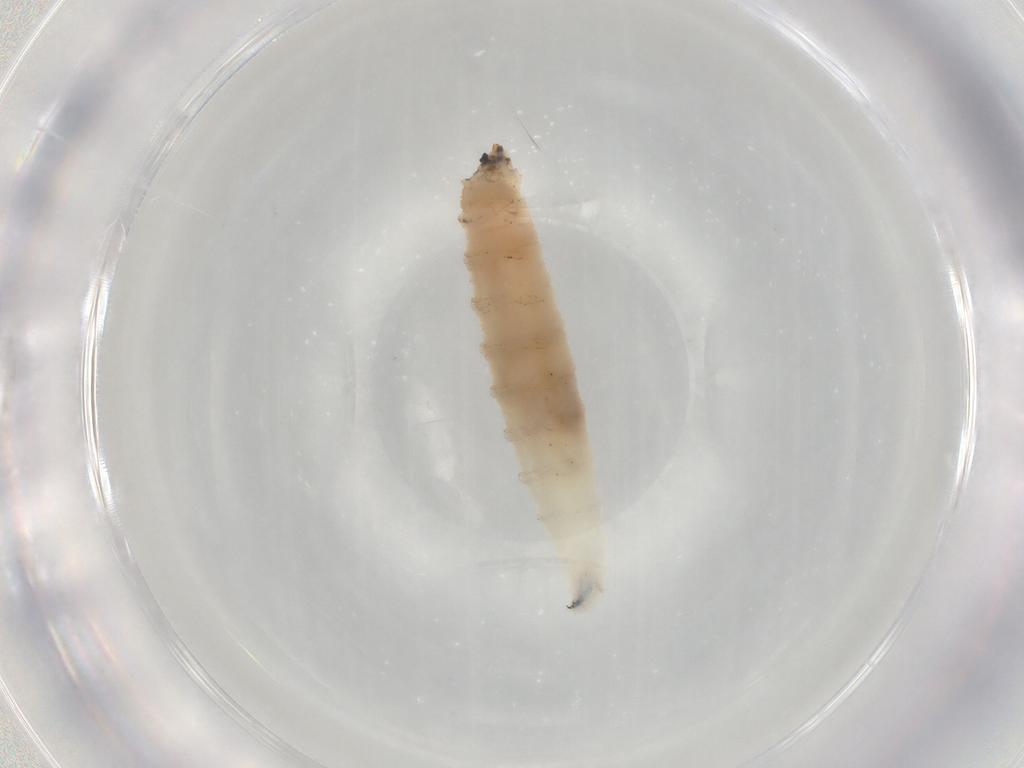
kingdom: Animalia
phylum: Arthropoda
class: Insecta
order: Diptera
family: Drosophilidae
